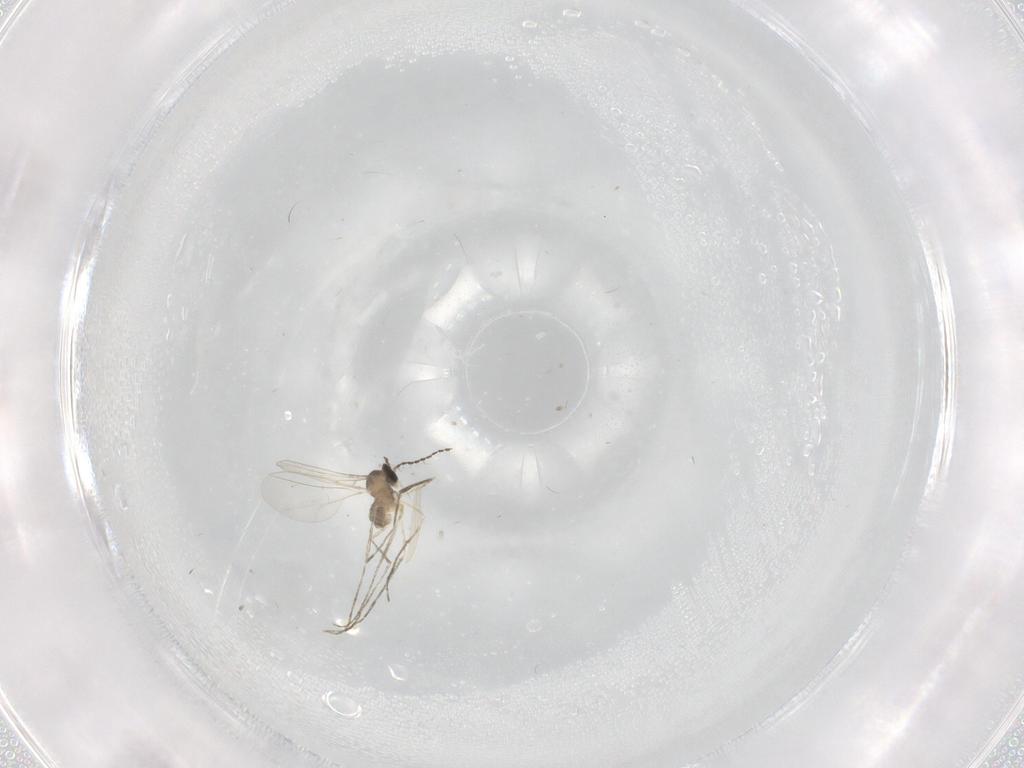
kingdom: Animalia
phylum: Arthropoda
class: Insecta
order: Diptera
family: Cecidomyiidae
